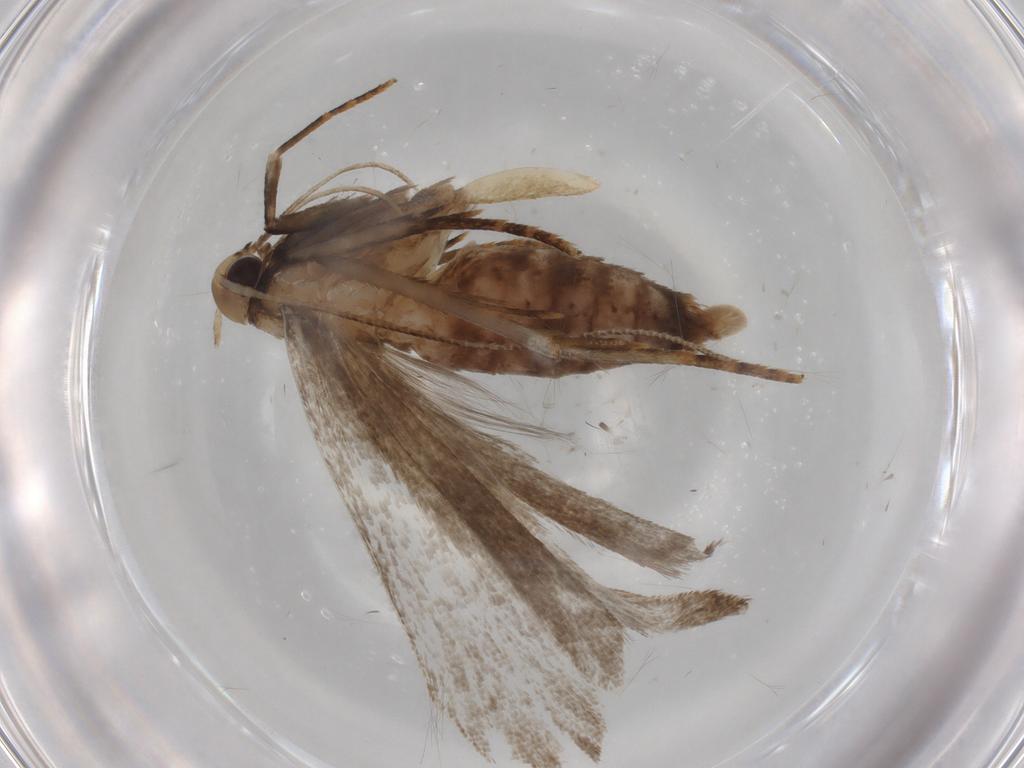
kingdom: Animalia
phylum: Arthropoda
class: Insecta
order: Lepidoptera
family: Cosmopterigidae
